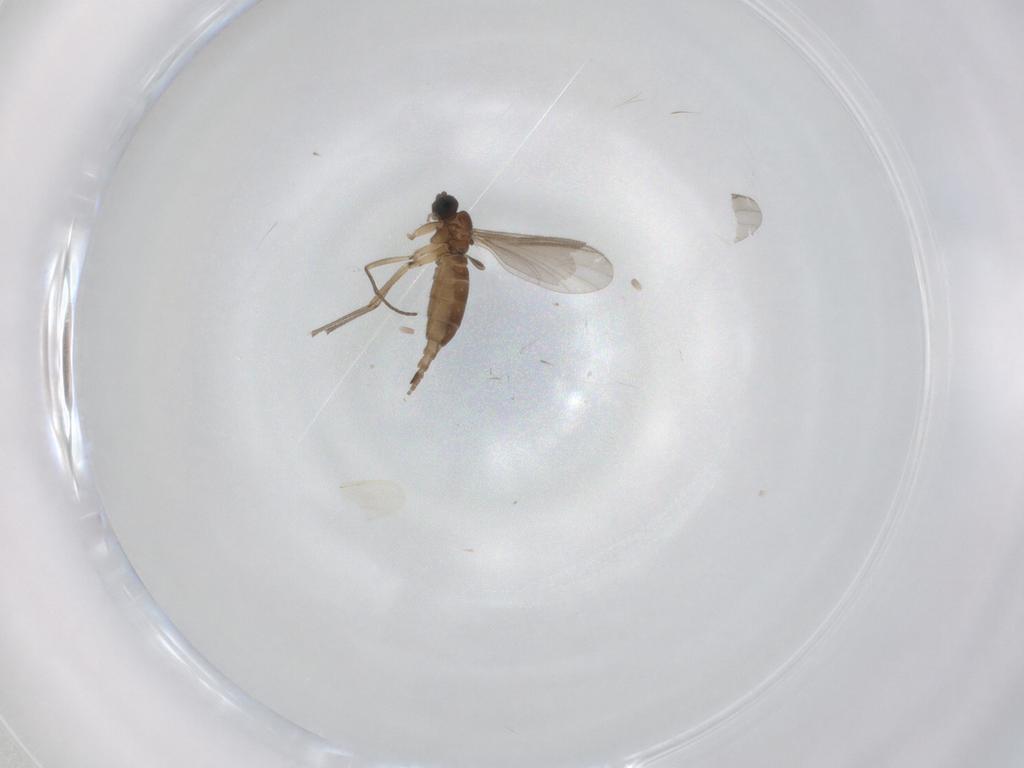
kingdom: Animalia
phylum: Arthropoda
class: Insecta
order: Diptera
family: Sciaridae
